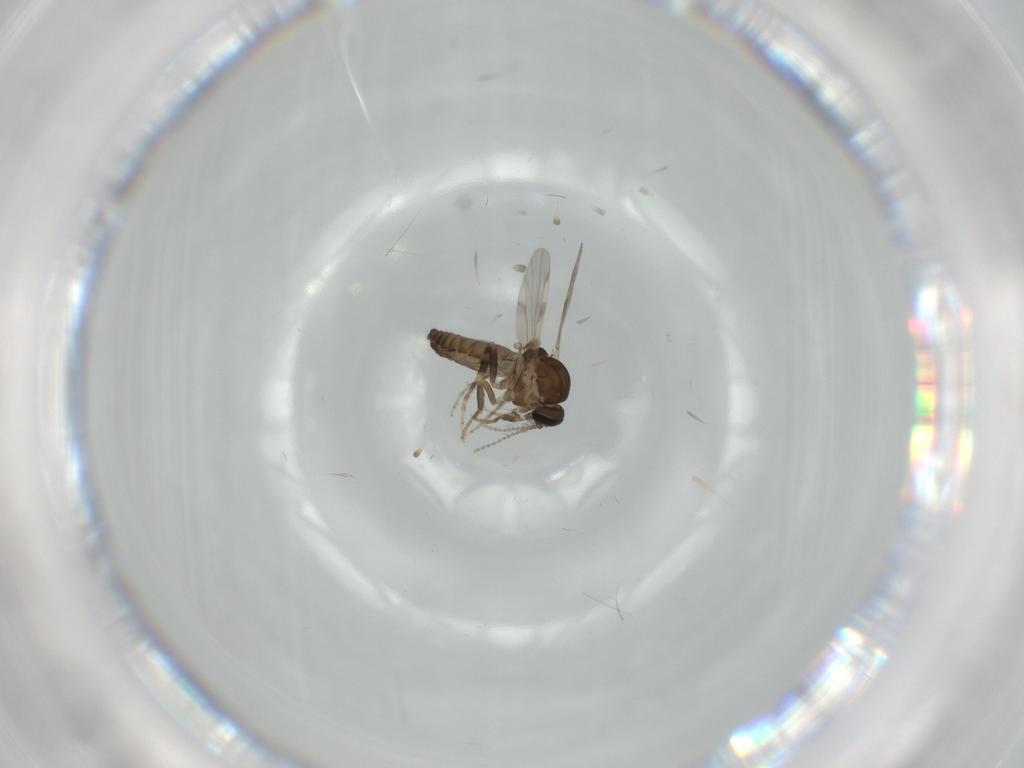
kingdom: Animalia
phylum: Arthropoda
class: Insecta
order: Diptera
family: Ceratopogonidae
